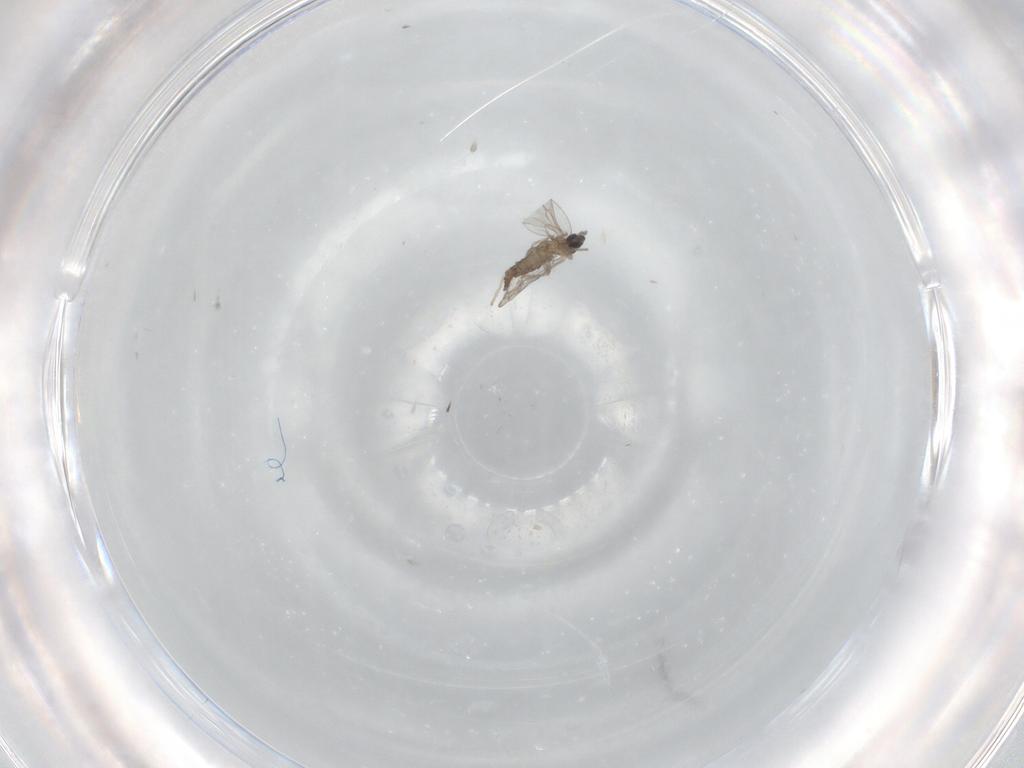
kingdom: Animalia
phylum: Arthropoda
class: Insecta
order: Diptera
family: Cecidomyiidae
